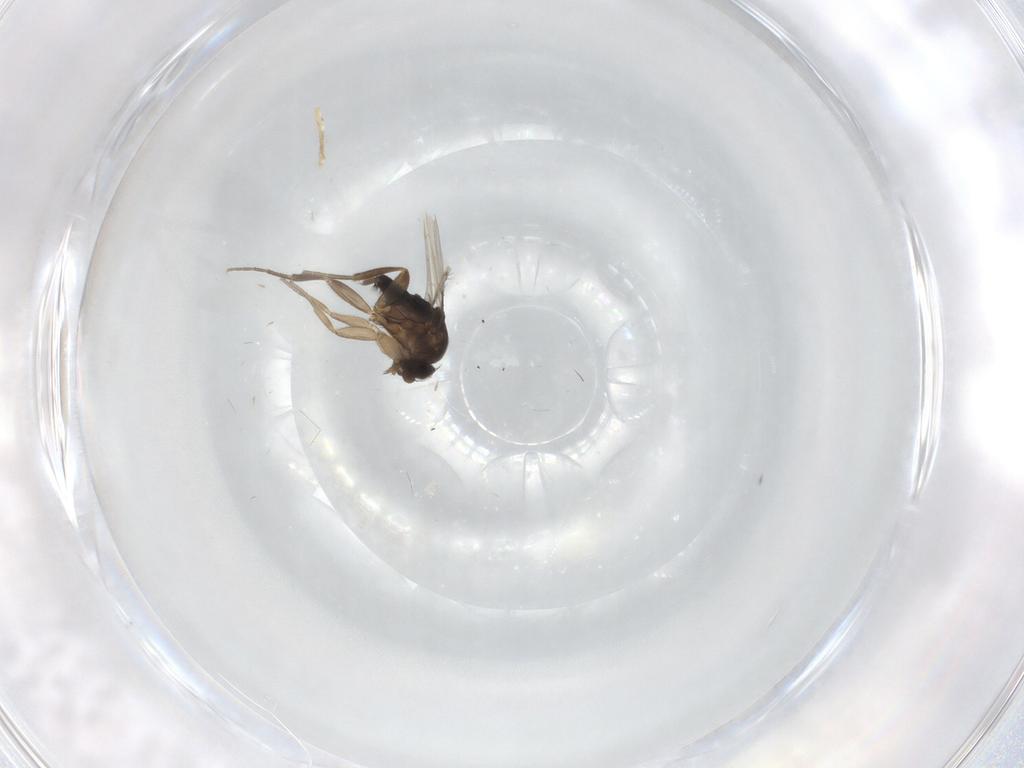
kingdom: Animalia
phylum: Arthropoda
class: Insecta
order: Diptera
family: Phoridae
